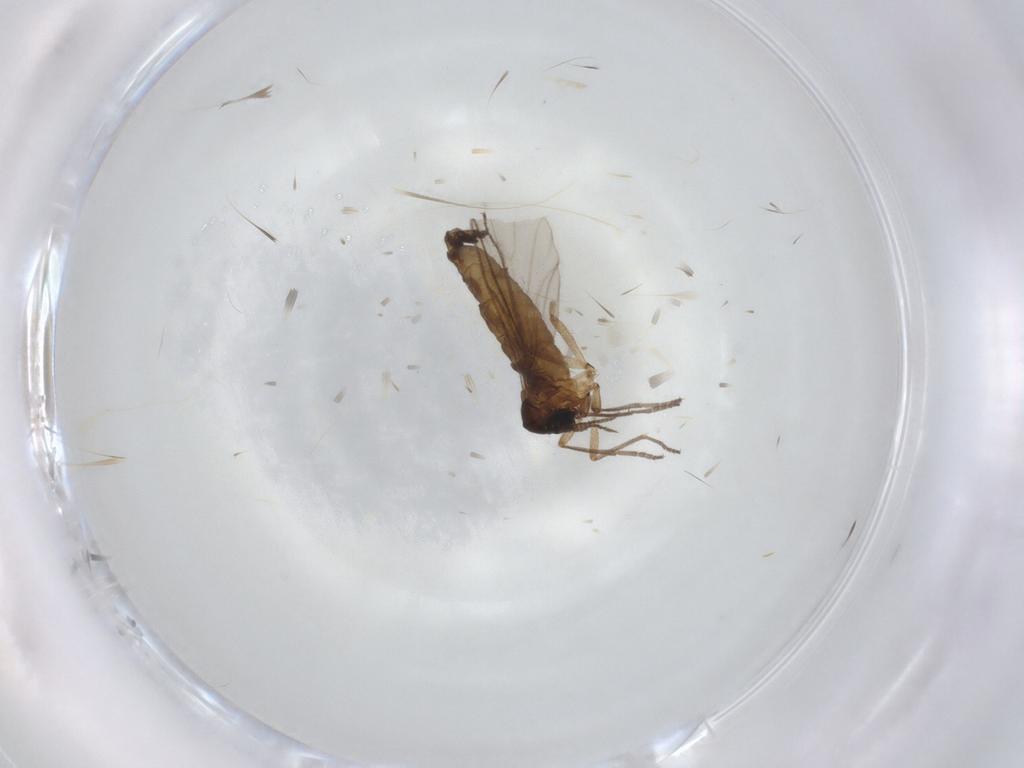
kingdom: Animalia
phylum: Arthropoda
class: Insecta
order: Diptera
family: Sciaridae
